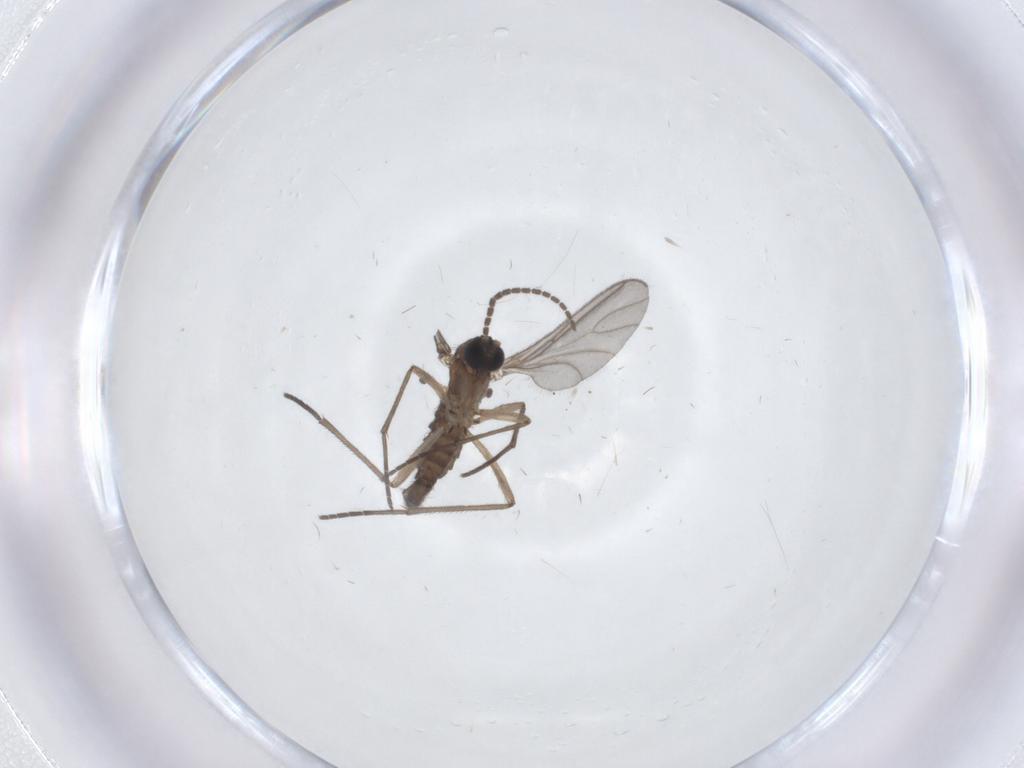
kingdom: Animalia
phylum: Arthropoda
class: Insecta
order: Diptera
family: Sciaridae
